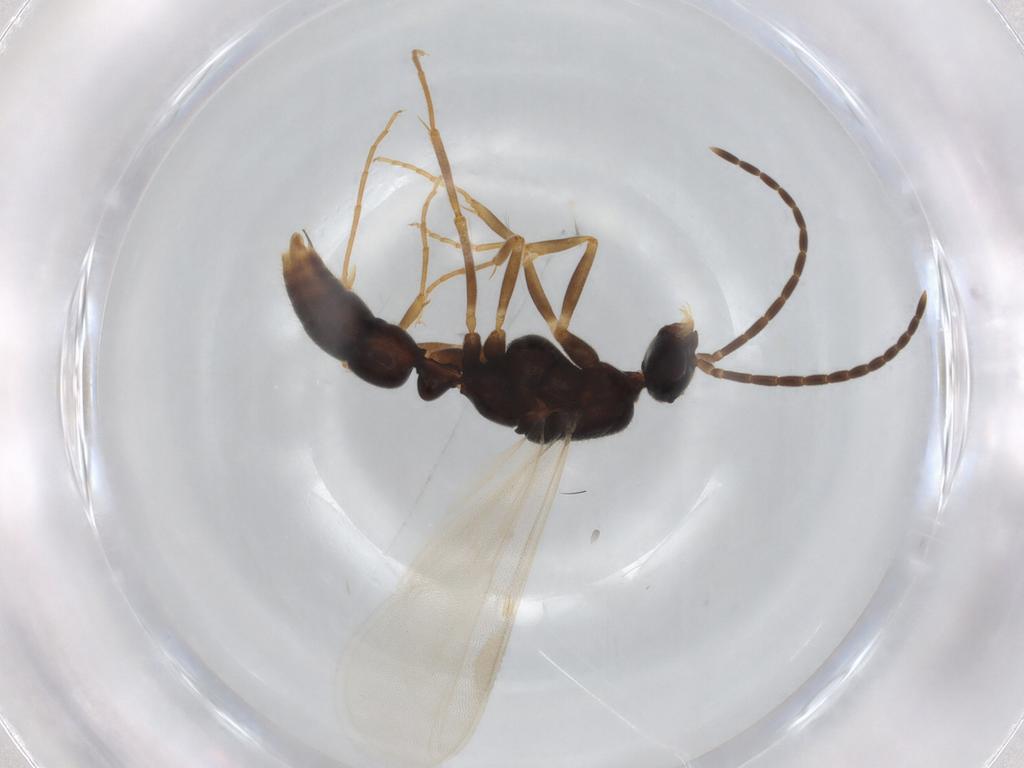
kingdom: Animalia
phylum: Arthropoda
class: Insecta
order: Hymenoptera
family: Formicidae
